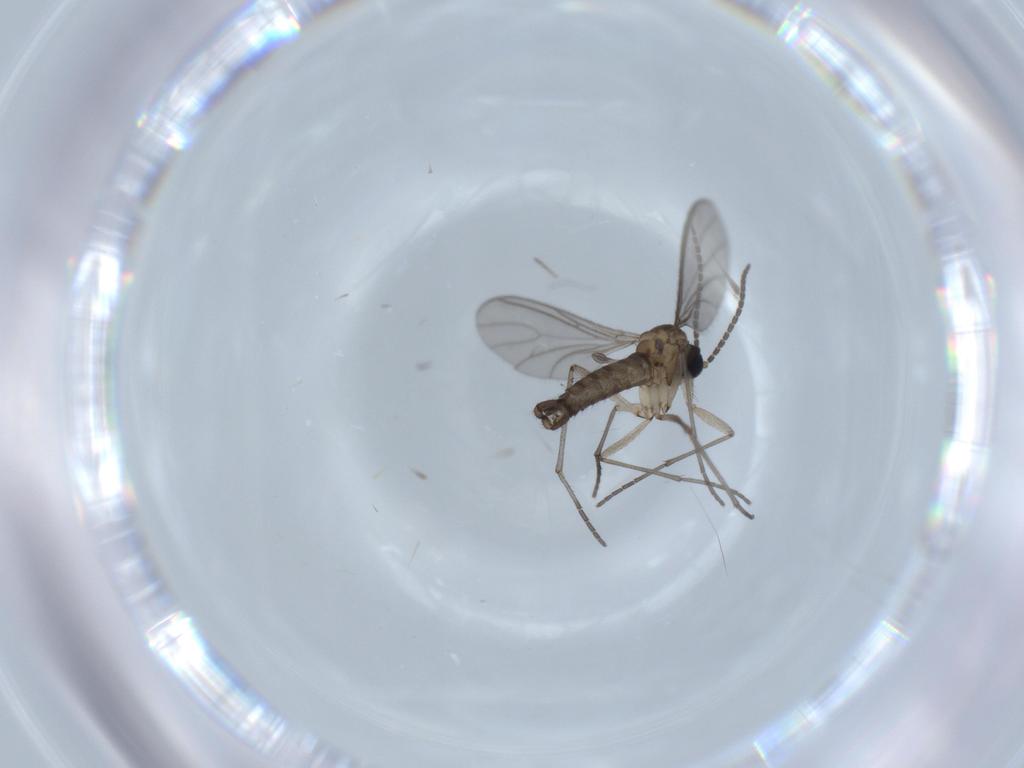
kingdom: Animalia
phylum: Arthropoda
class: Insecta
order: Diptera
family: Sciaridae
